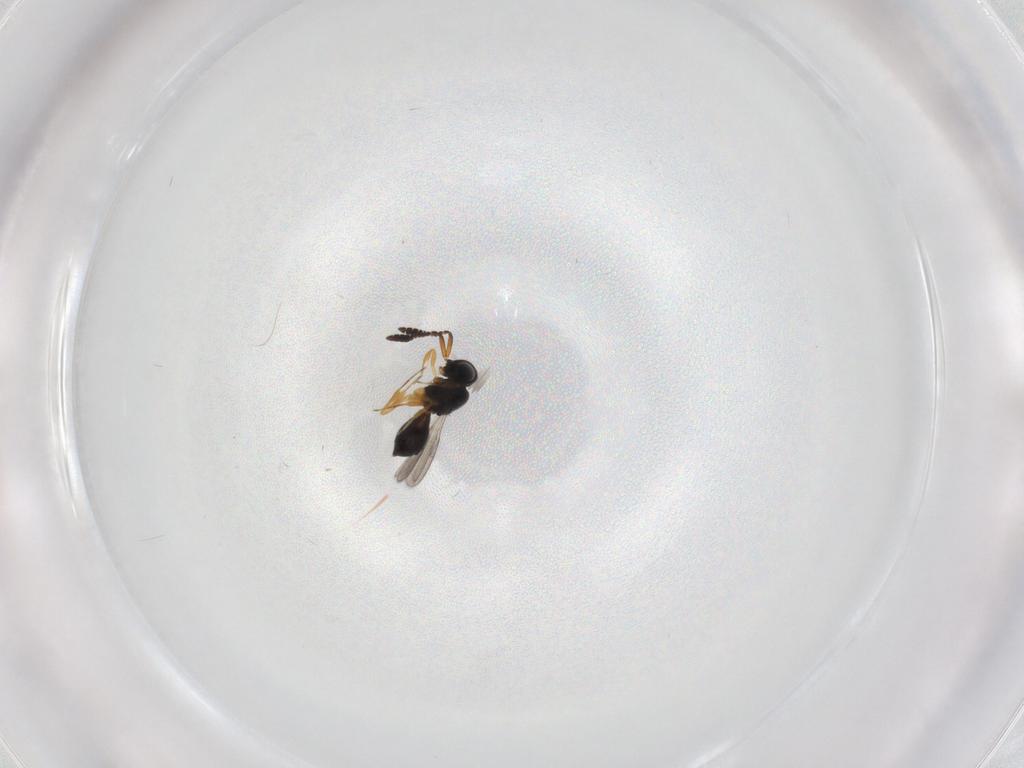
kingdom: Animalia
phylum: Arthropoda
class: Insecta
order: Hymenoptera
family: Scelionidae
